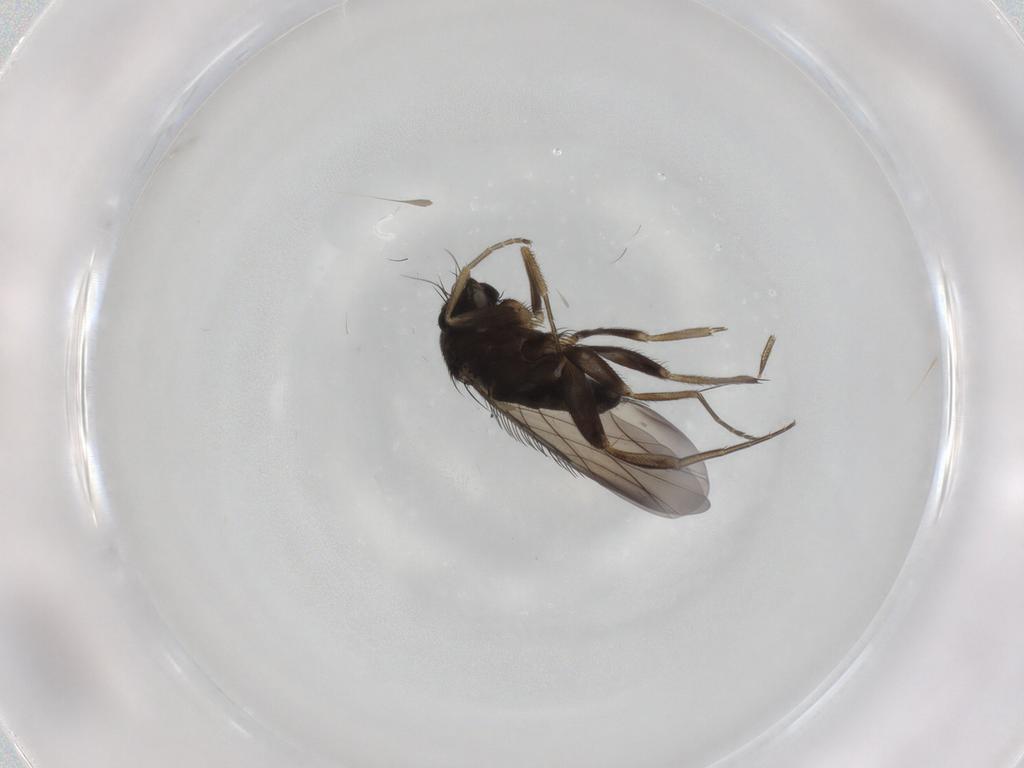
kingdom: Animalia
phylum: Arthropoda
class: Insecta
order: Diptera
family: Phoridae
